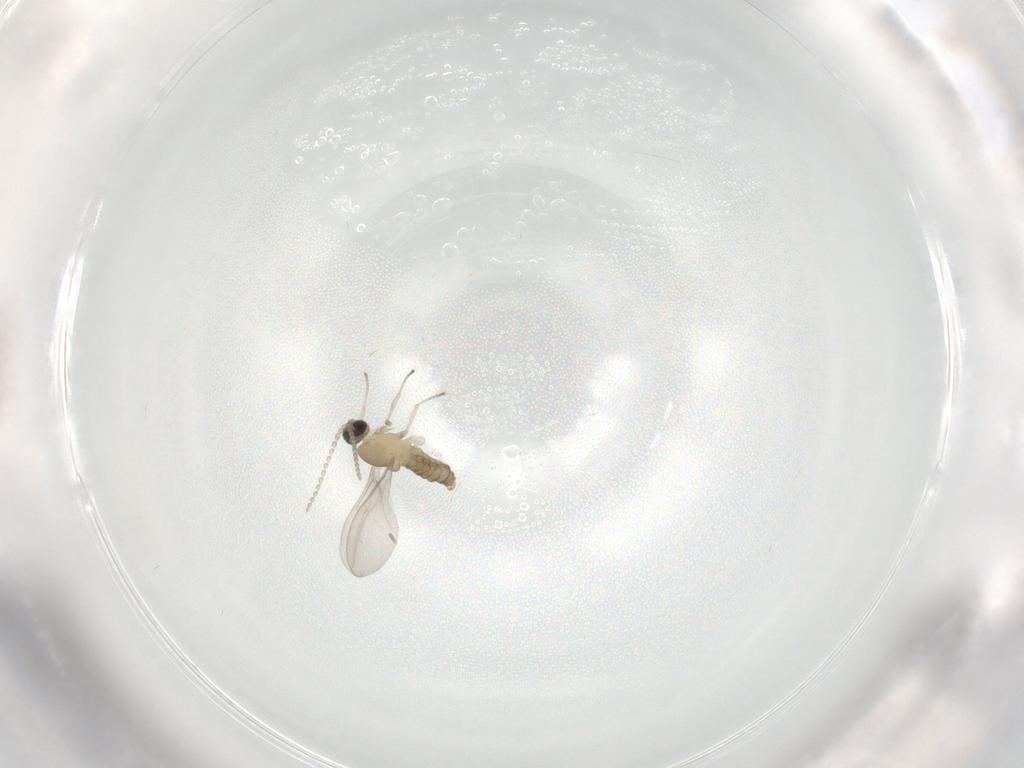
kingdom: Animalia
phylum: Arthropoda
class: Insecta
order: Diptera
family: Cecidomyiidae
